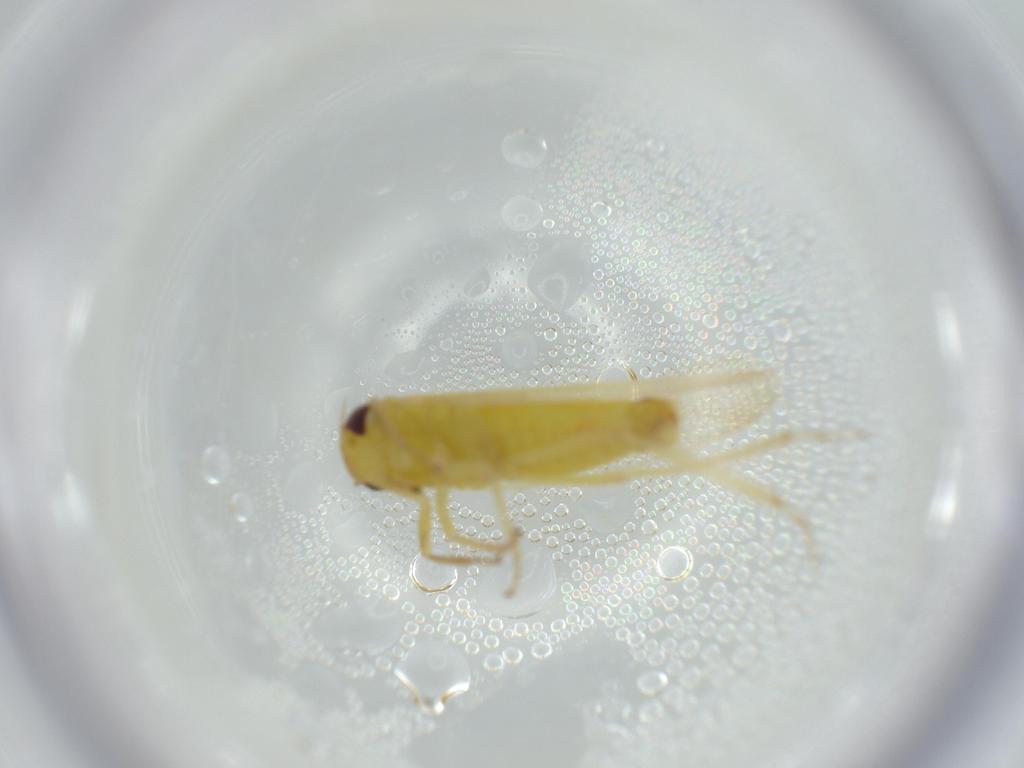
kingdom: Animalia
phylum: Arthropoda
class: Insecta
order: Hemiptera
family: Cicadellidae
